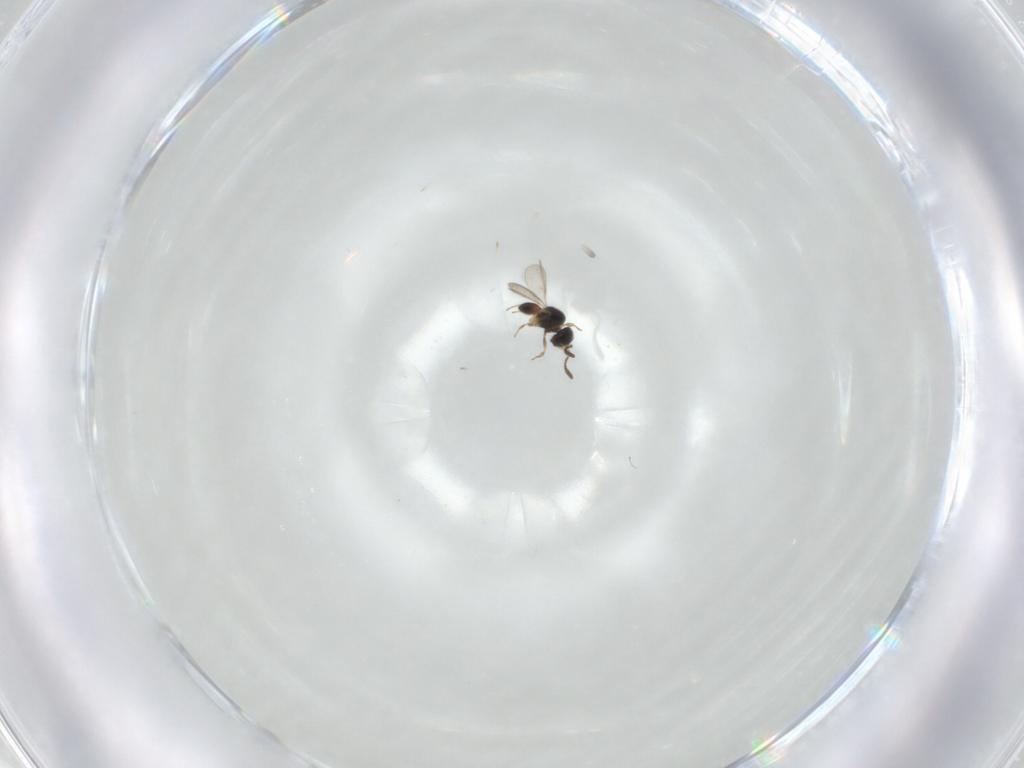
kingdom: Animalia
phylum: Arthropoda
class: Insecta
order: Hymenoptera
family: Scelionidae
